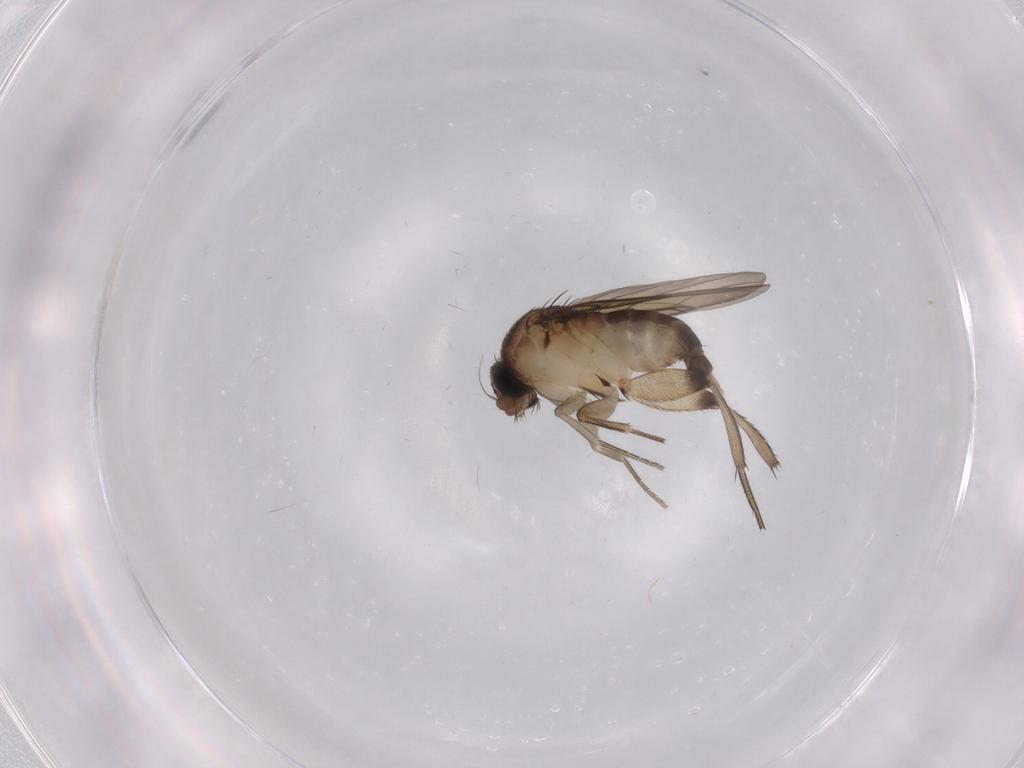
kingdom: Animalia
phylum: Arthropoda
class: Insecta
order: Diptera
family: Phoridae
